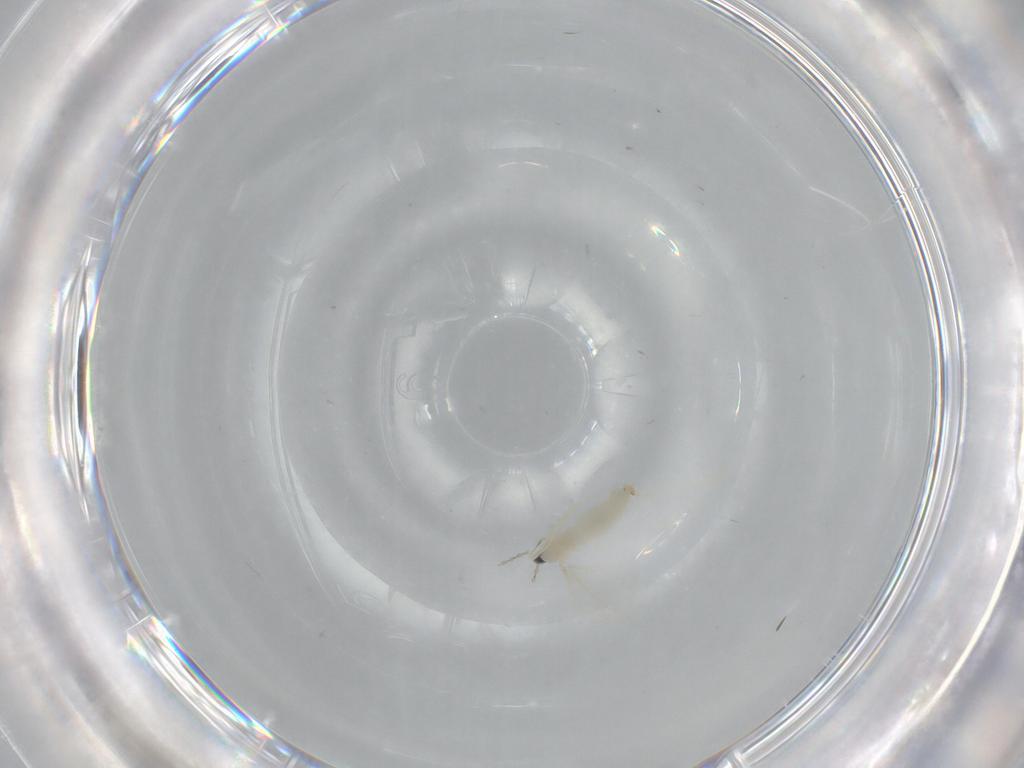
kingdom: Animalia
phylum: Arthropoda
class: Insecta
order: Diptera
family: Cecidomyiidae
